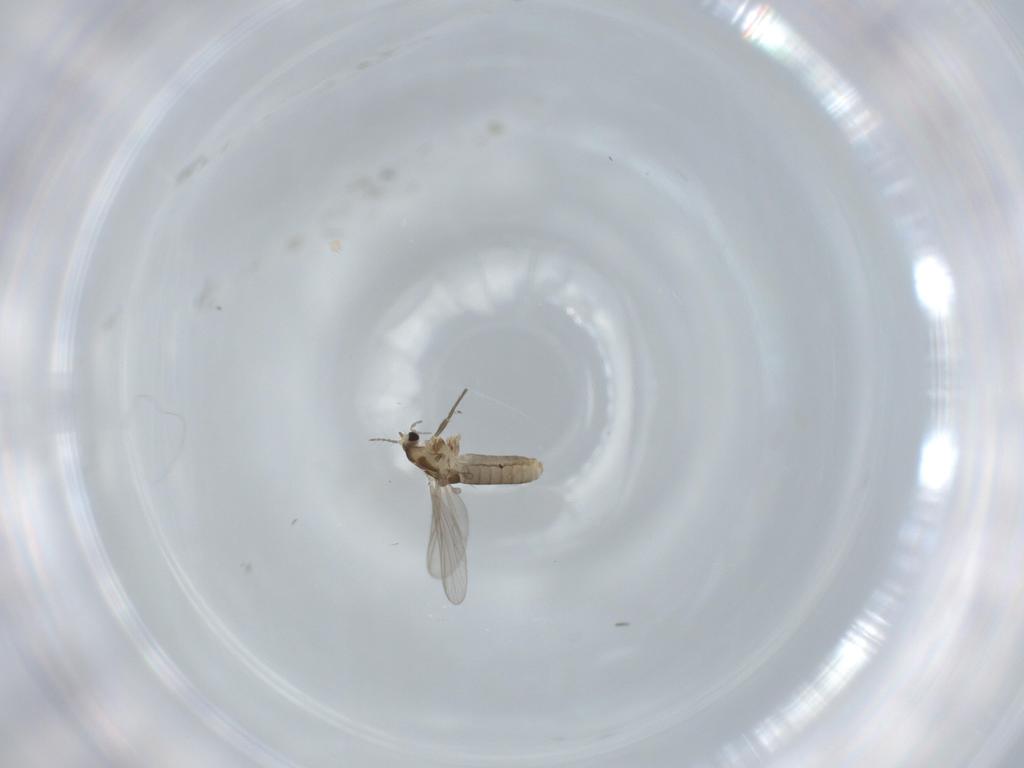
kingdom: Animalia
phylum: Arthropoda
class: Insecta
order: Diptera
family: Chironomidae
